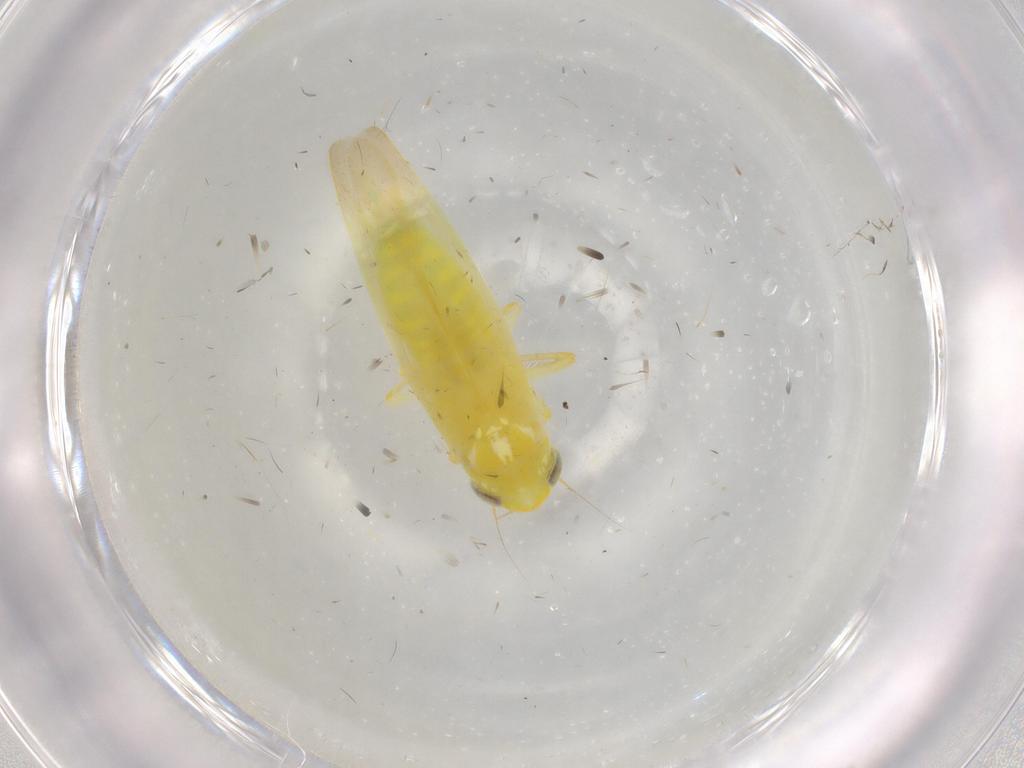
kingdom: Animalia
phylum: Arthropoda
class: Insecta
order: Hemiptera
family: Cicadellidae
